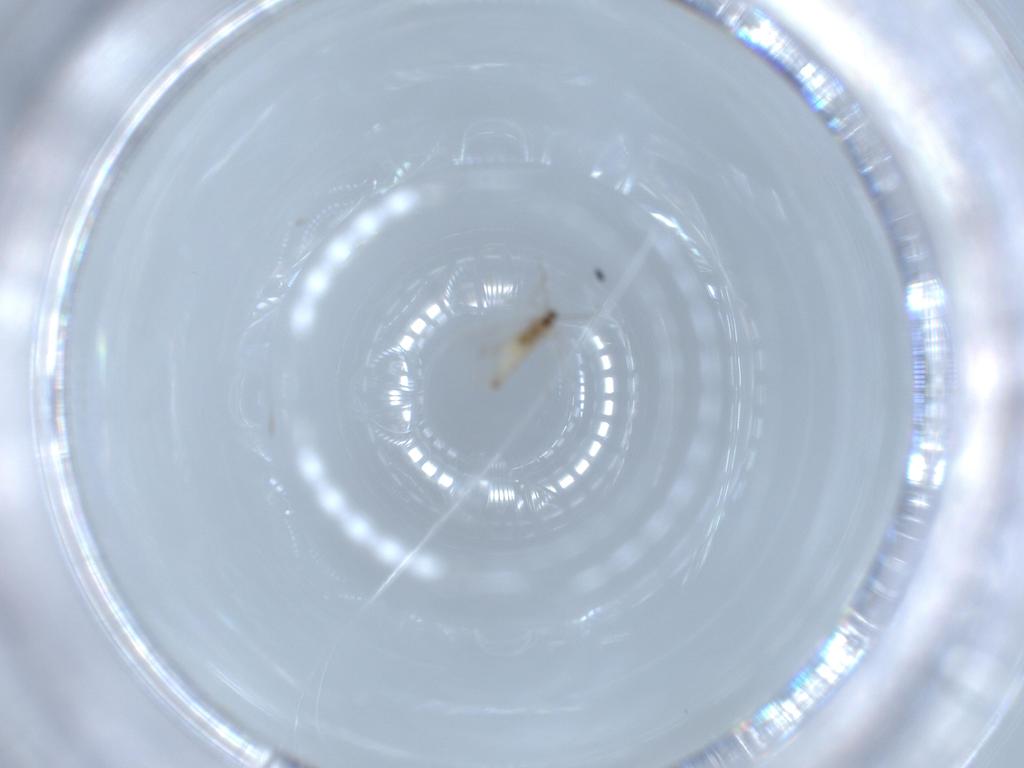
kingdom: Animalia
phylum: Arthropoda
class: Insecta
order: Diptera
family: Cecidomyiidae
